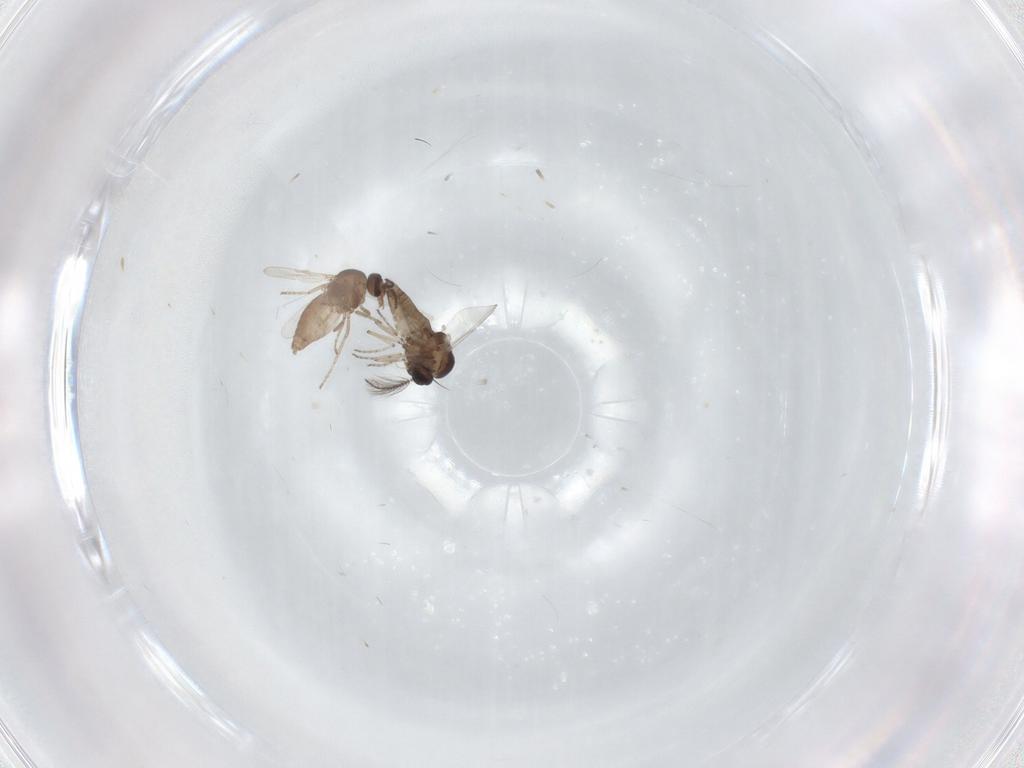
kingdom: Animalia
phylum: Arthropoda
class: Insecta
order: Diptera
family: Ceratopogonidae
